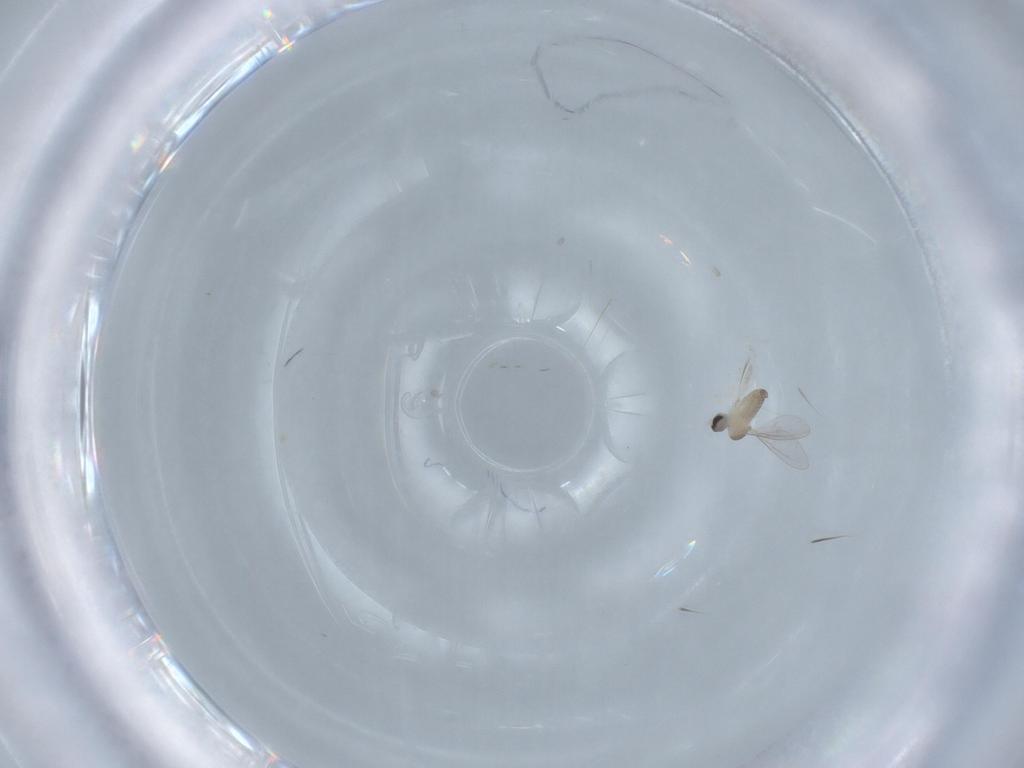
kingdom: Animalia
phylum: Arthropoda
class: Insecta
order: Diptera
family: Cecidomyiidae
